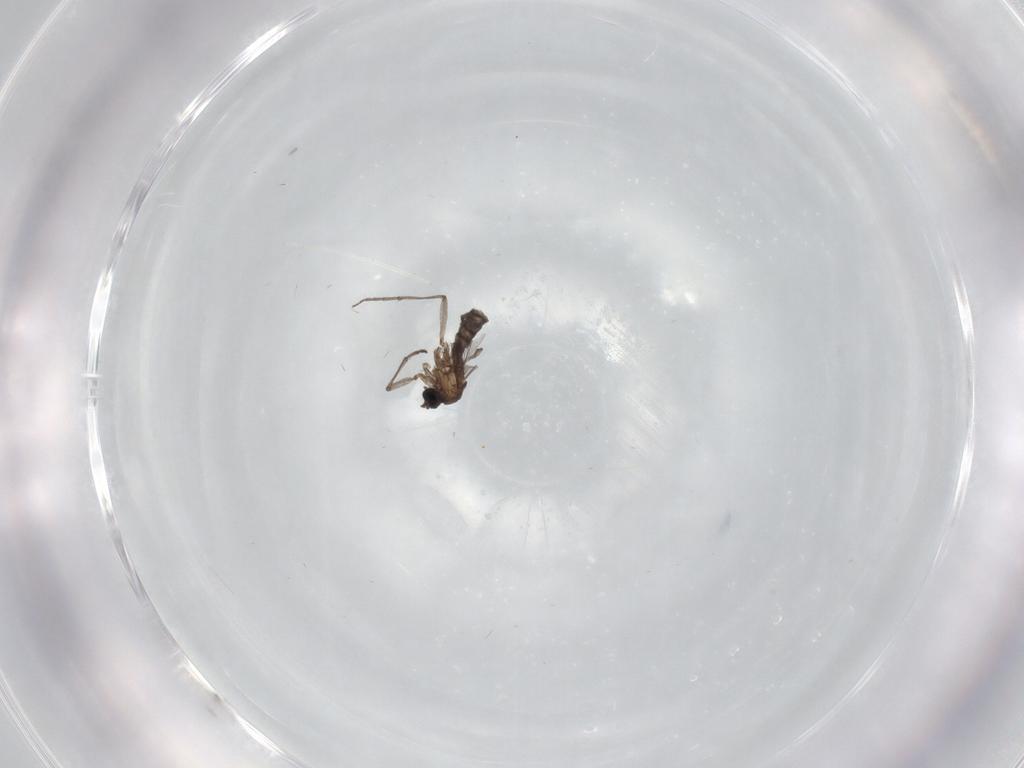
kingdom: Animalia
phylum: Arthropoda
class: Insecta
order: Diptera
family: Sciaridae
